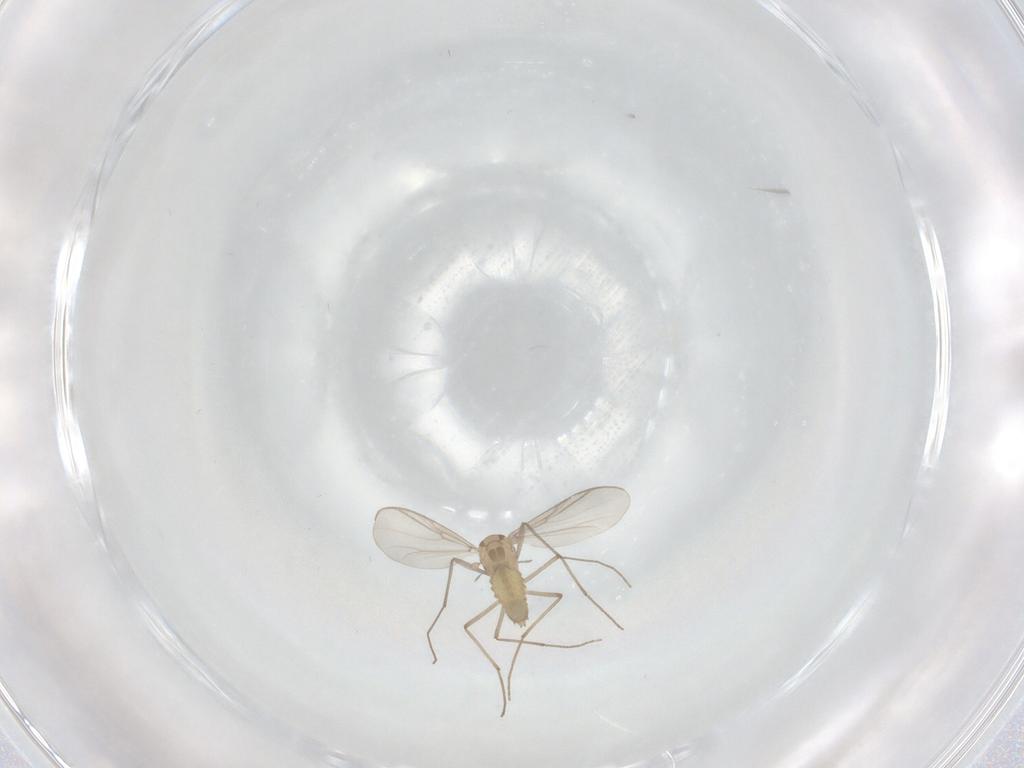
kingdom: Animalia
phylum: Arthropoda
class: Insecta
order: Diptera
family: Chironomidae
